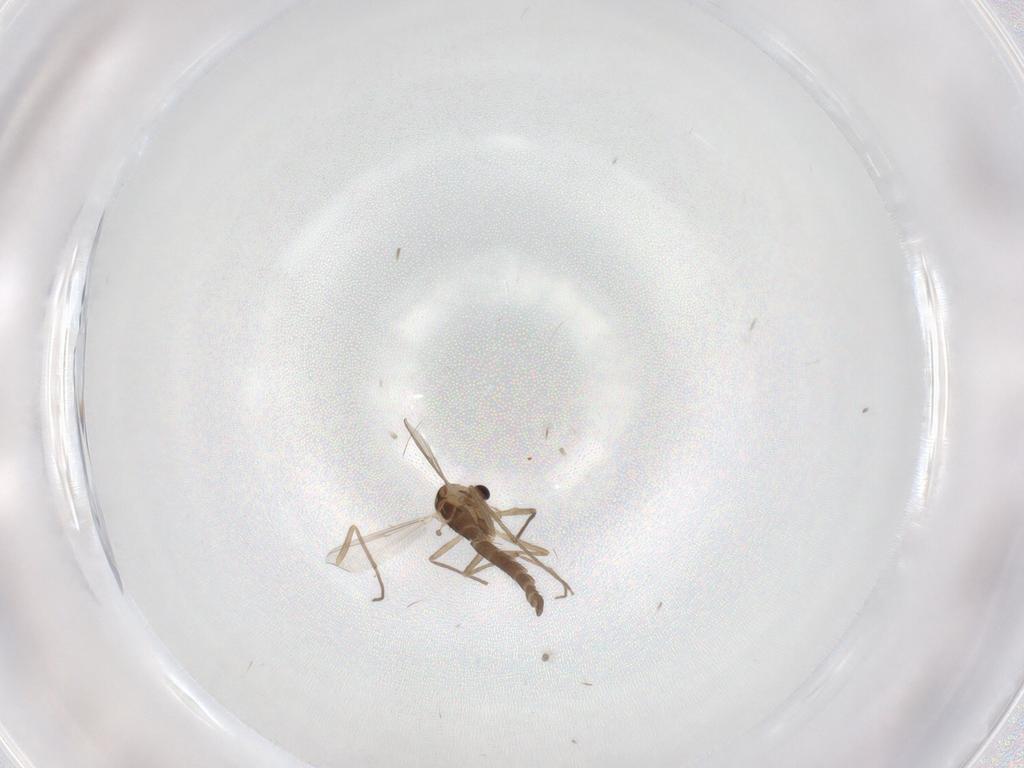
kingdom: Animalia
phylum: Arthropoda
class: Insecta
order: Diptera
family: Chironomidae
